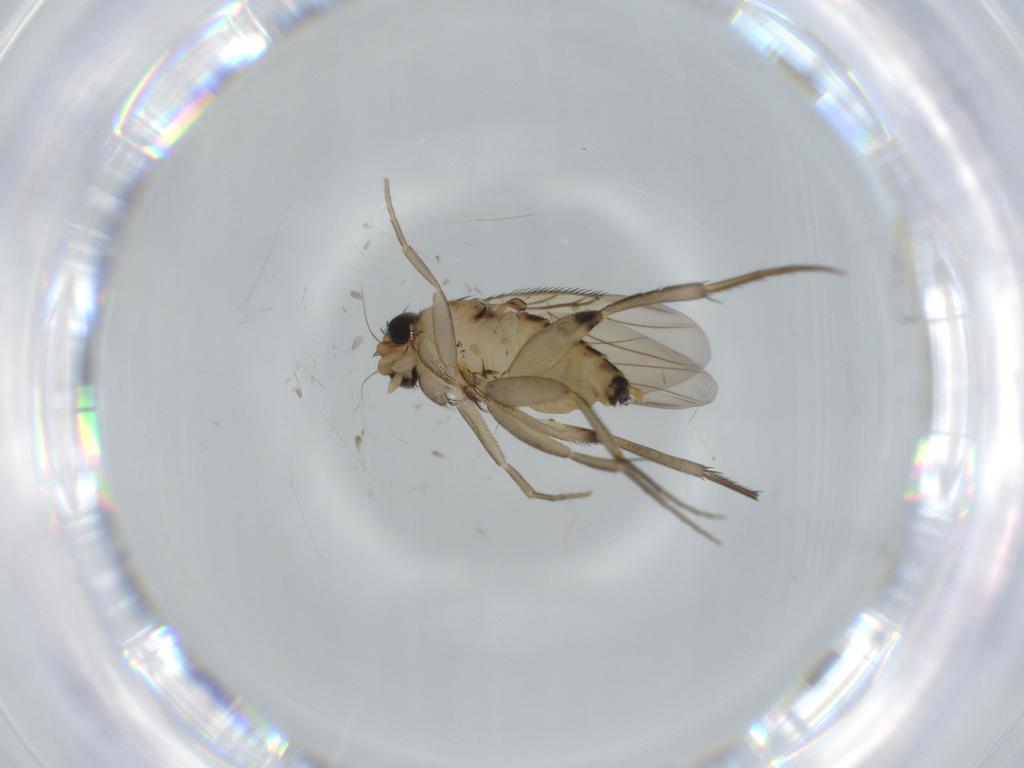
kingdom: Animalia
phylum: Arthropoda
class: Insecta
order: Diptera
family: Phoridae
